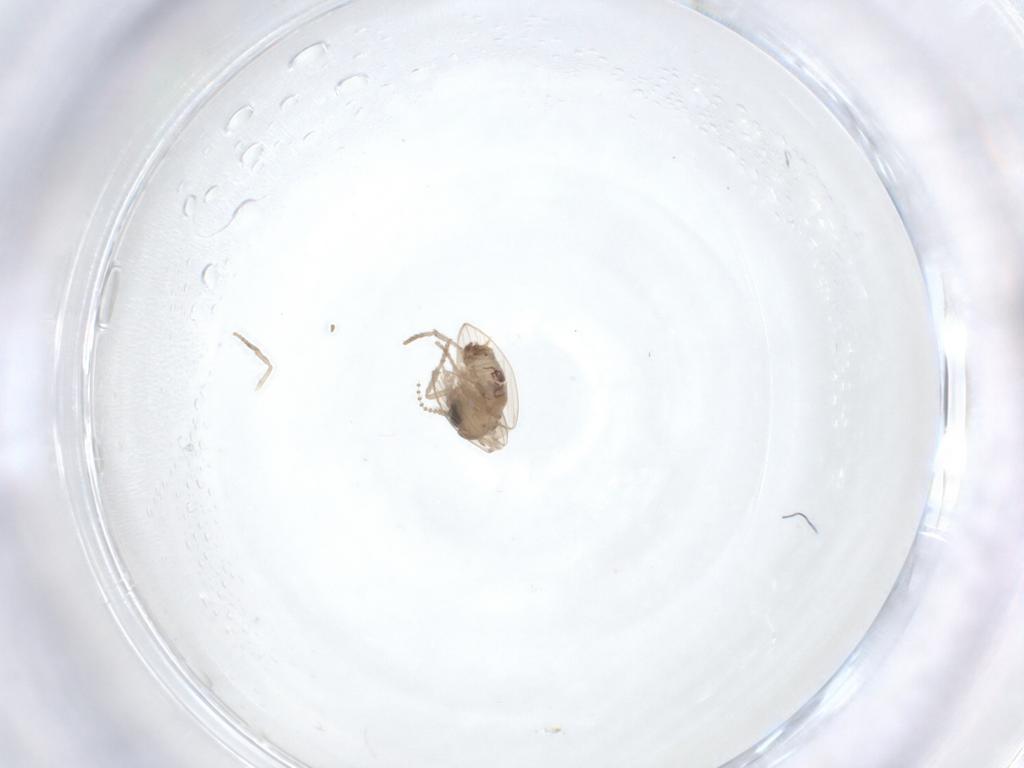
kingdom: Animalia
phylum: Arthropoda
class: Insecta
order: Diptera
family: Psychodidae
